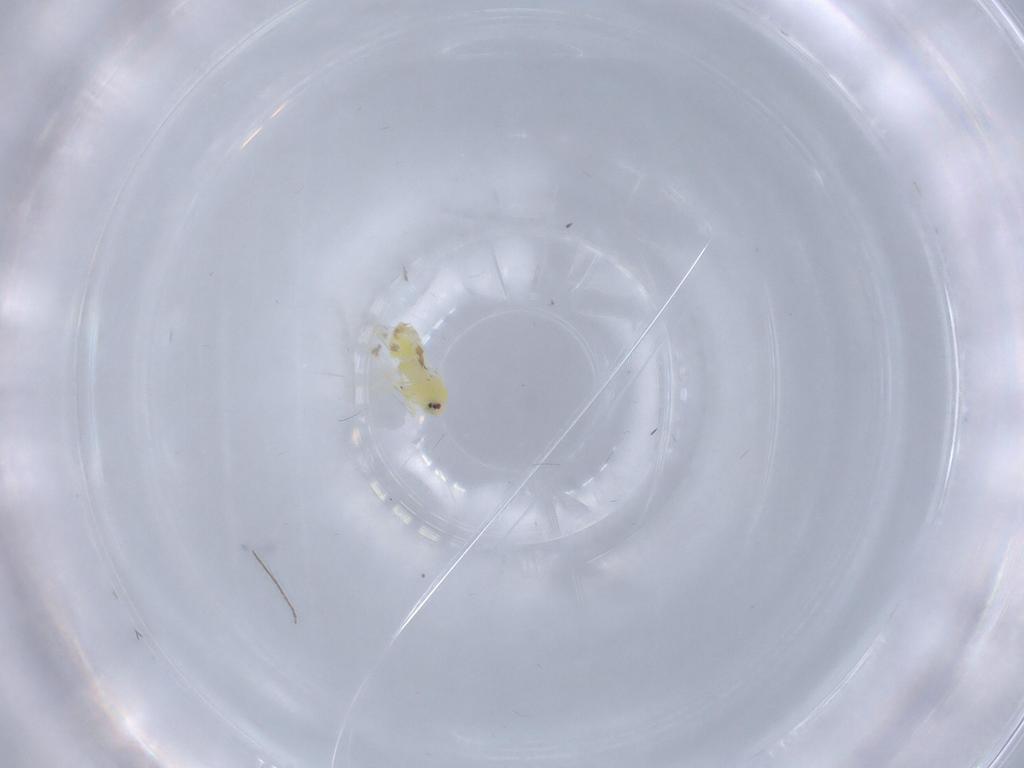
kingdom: Animalia
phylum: Arthropoda
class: Insecta
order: Hemiptera
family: Aleyrodidae
